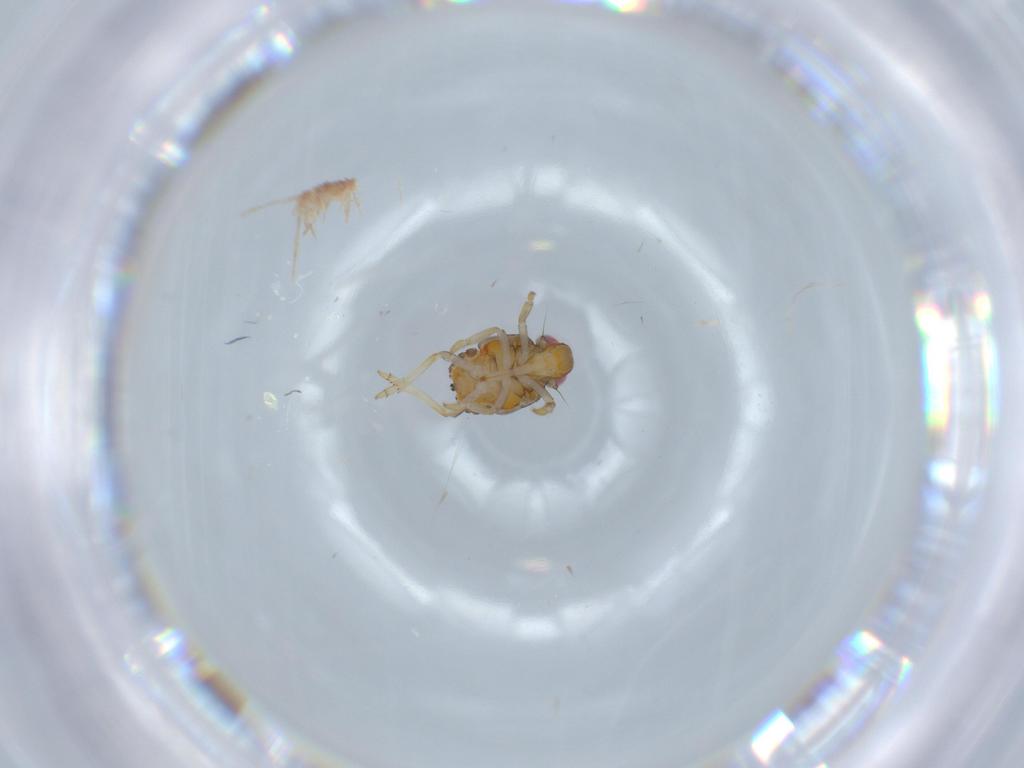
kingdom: Animalia
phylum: Arthropoda
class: Insecta
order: Hemiptera
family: Issidae
